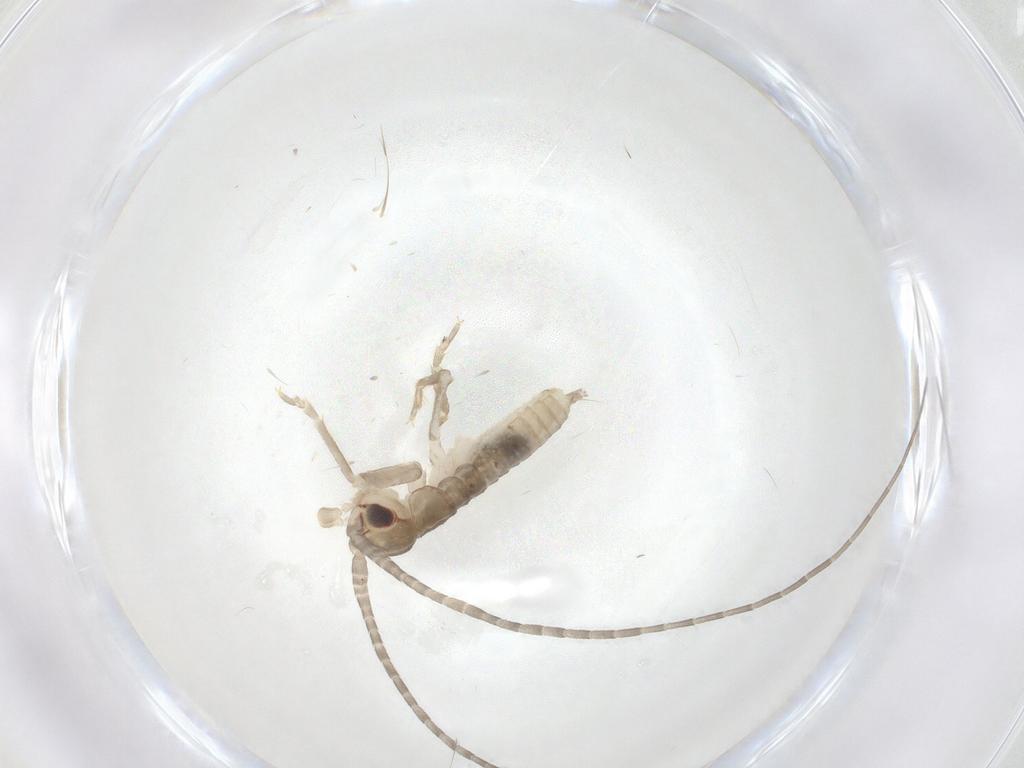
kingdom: Animalia
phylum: Arthropoda
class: Insecta
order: Orthoptera
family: Gryllidae
